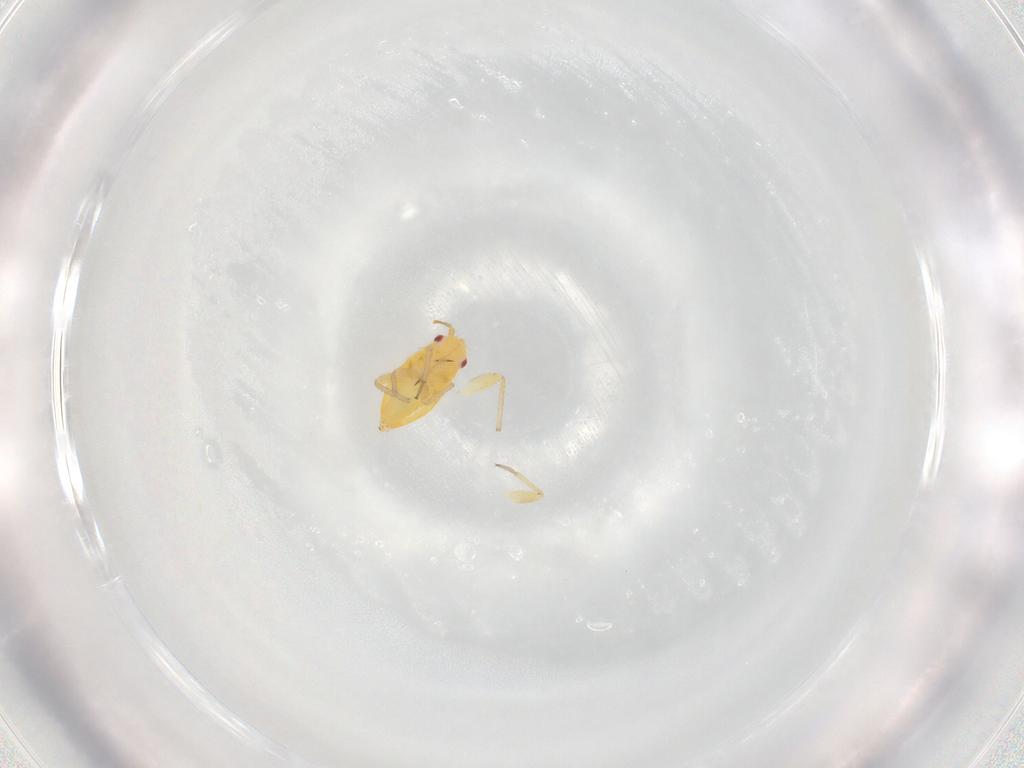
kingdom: Animalia
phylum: Arthropoda
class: Insecta
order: Hemiptera
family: Miridae
